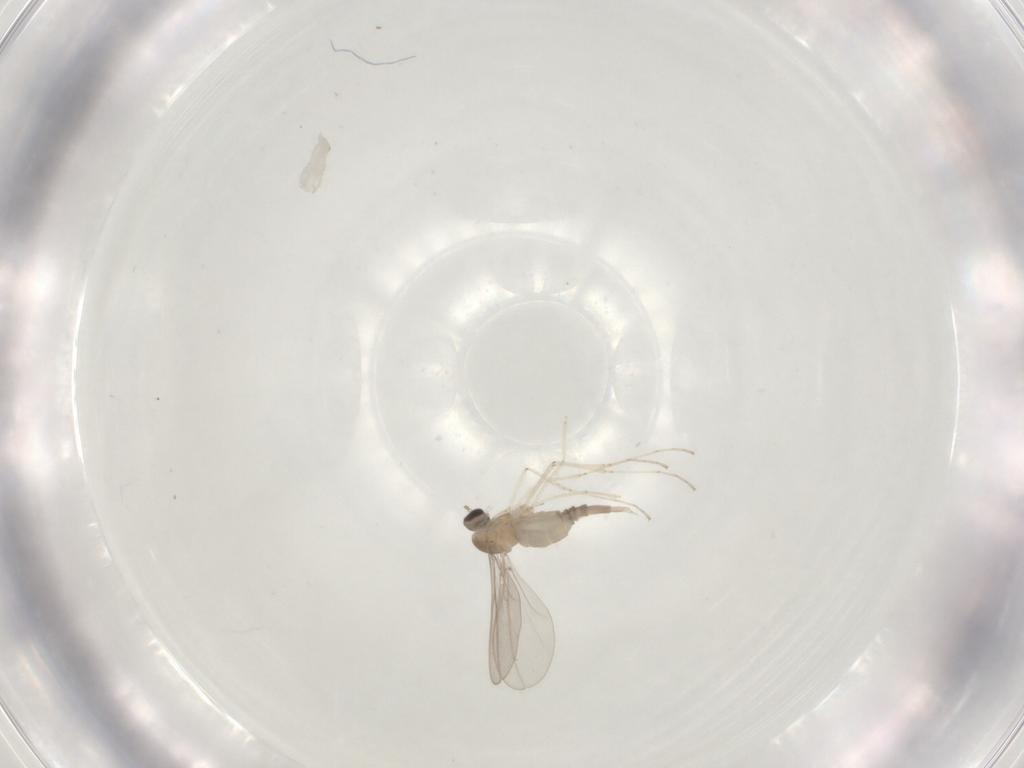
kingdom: Animalia
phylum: Arthropoda
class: Insecta
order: Diptera
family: Cecidomyiidae
